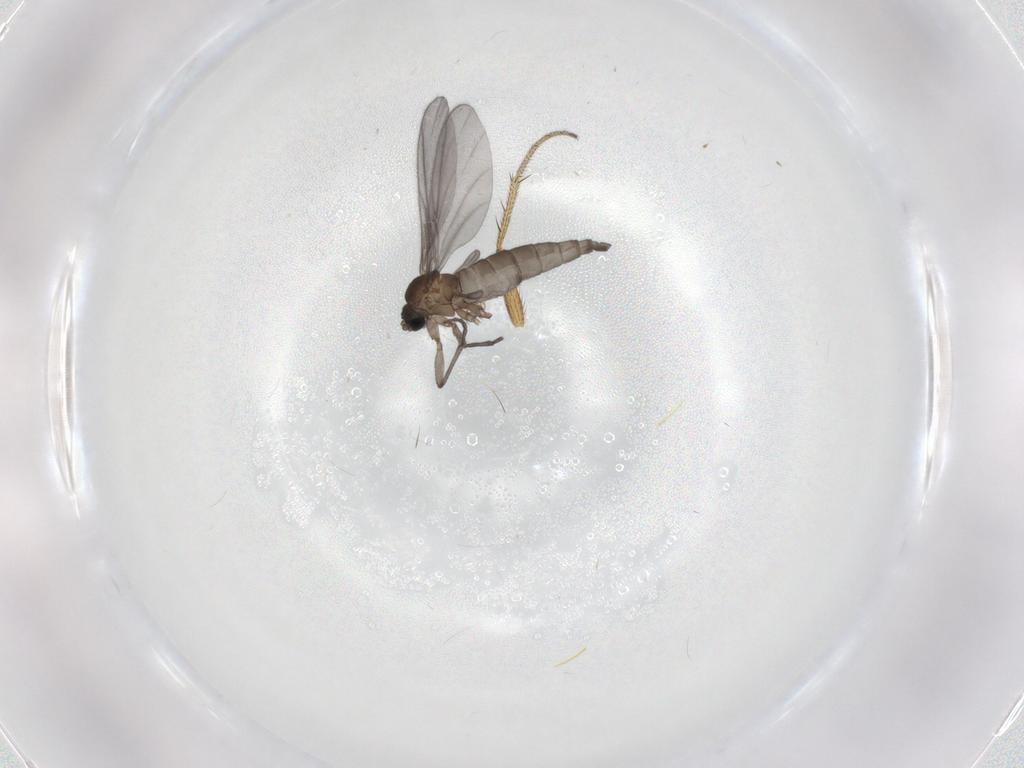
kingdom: Animalia
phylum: Arthropoda
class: Insecta
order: Diptera
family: Sciaridae
